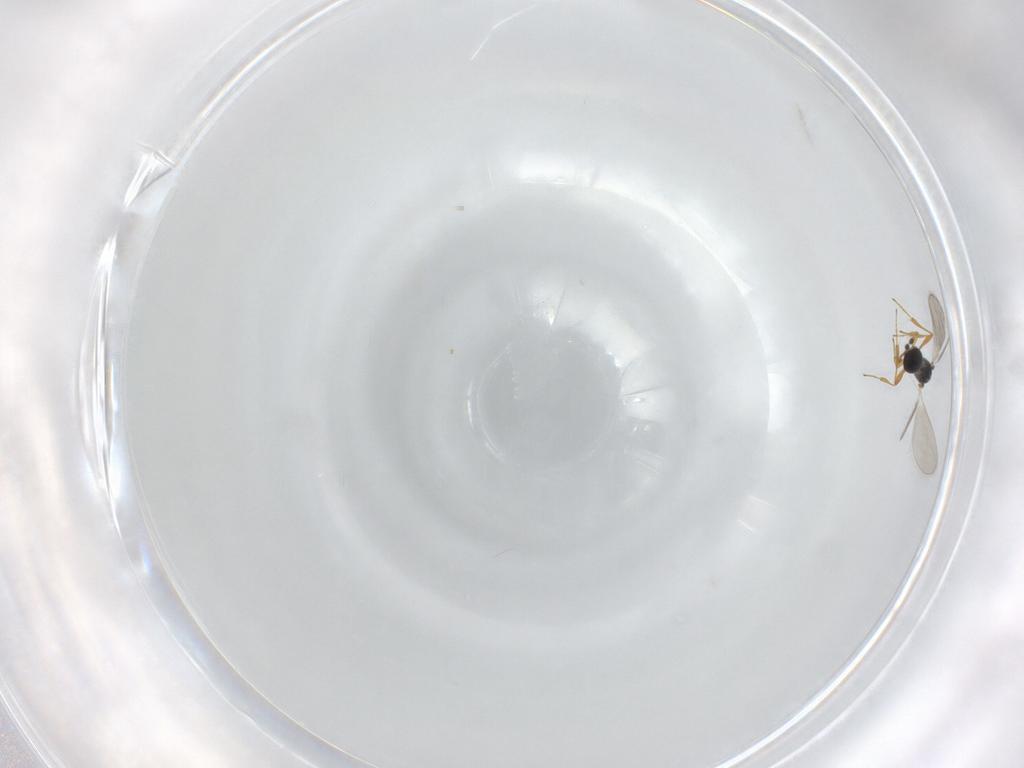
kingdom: Animalia
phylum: Arthropoda
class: Insecta
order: Hymenoptera
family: Platygastridae
